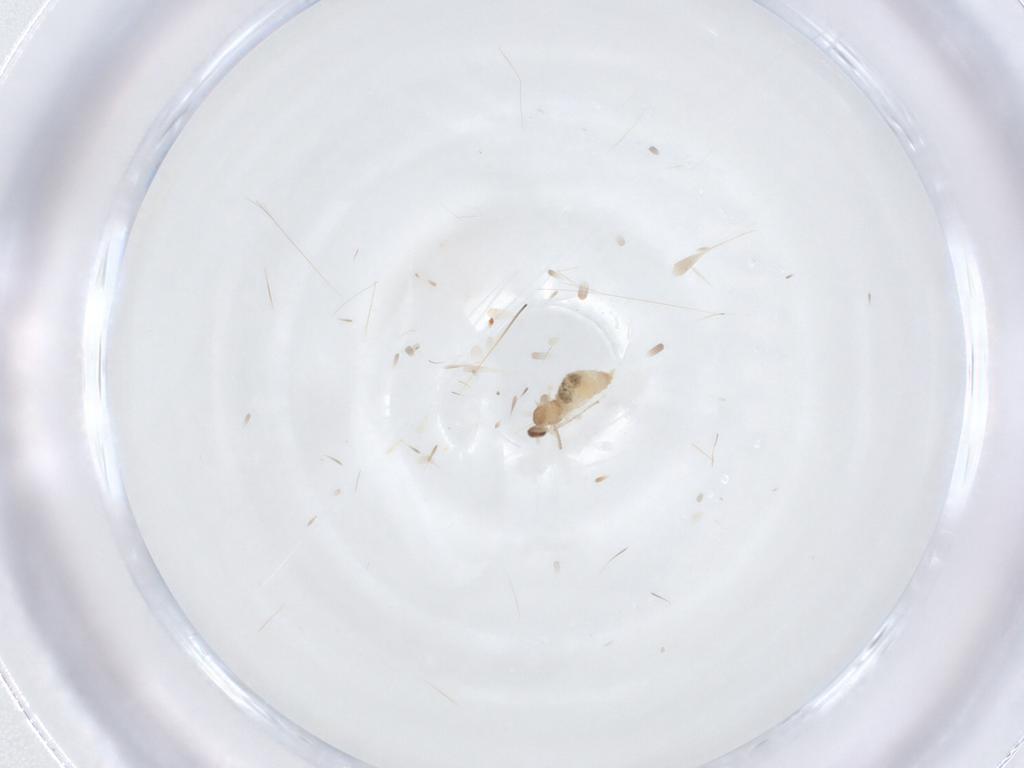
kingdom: Animalia
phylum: Arthropoda
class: Insecta
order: Diptera
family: Cecidomyiidae
